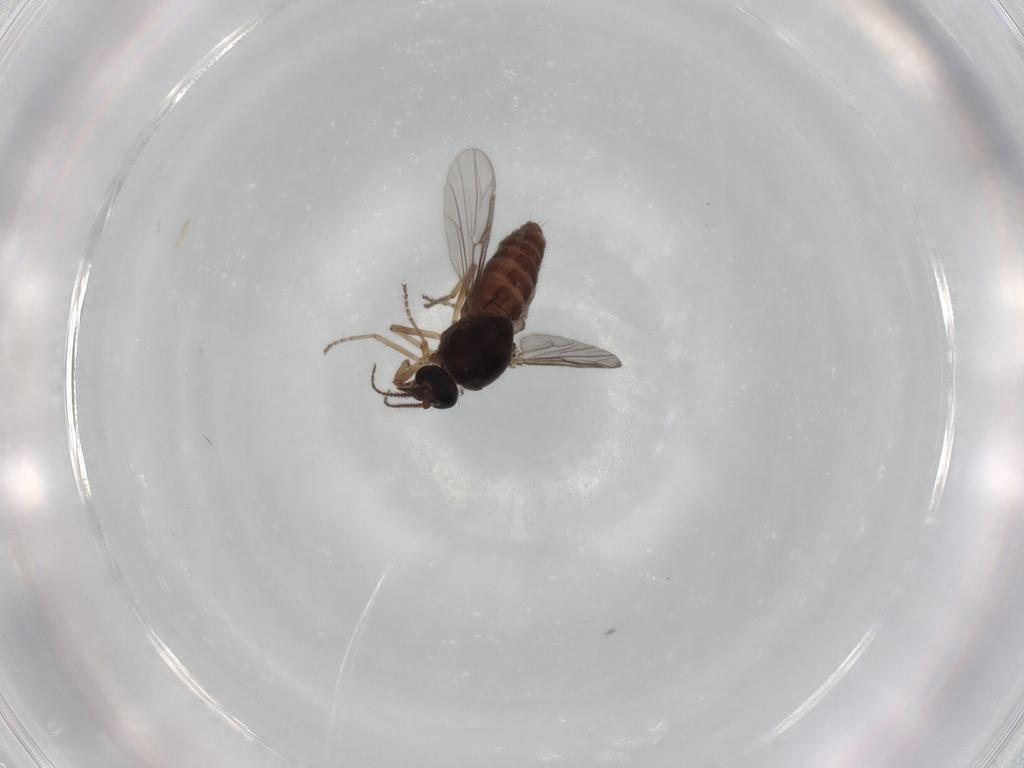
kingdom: Animalia
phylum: Arthropoda
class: Insecta
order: Diptera
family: Ceratopogonidae
